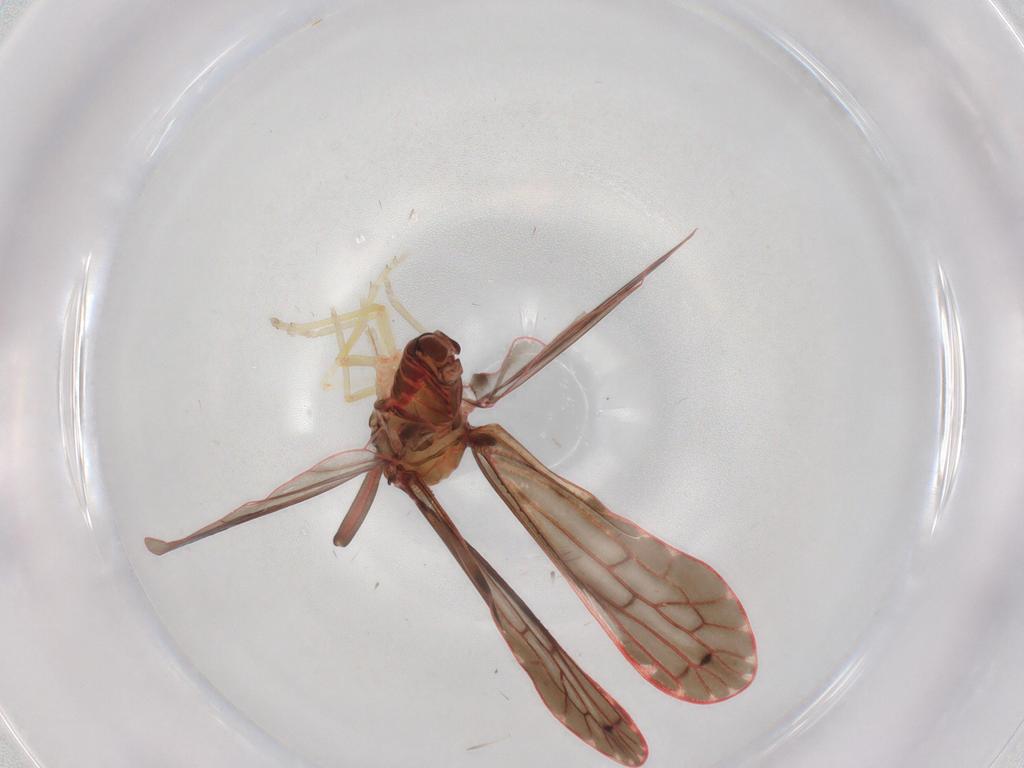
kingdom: Animalia
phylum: Arthropoda
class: Insecta
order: Hemiptera
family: Derbidae
